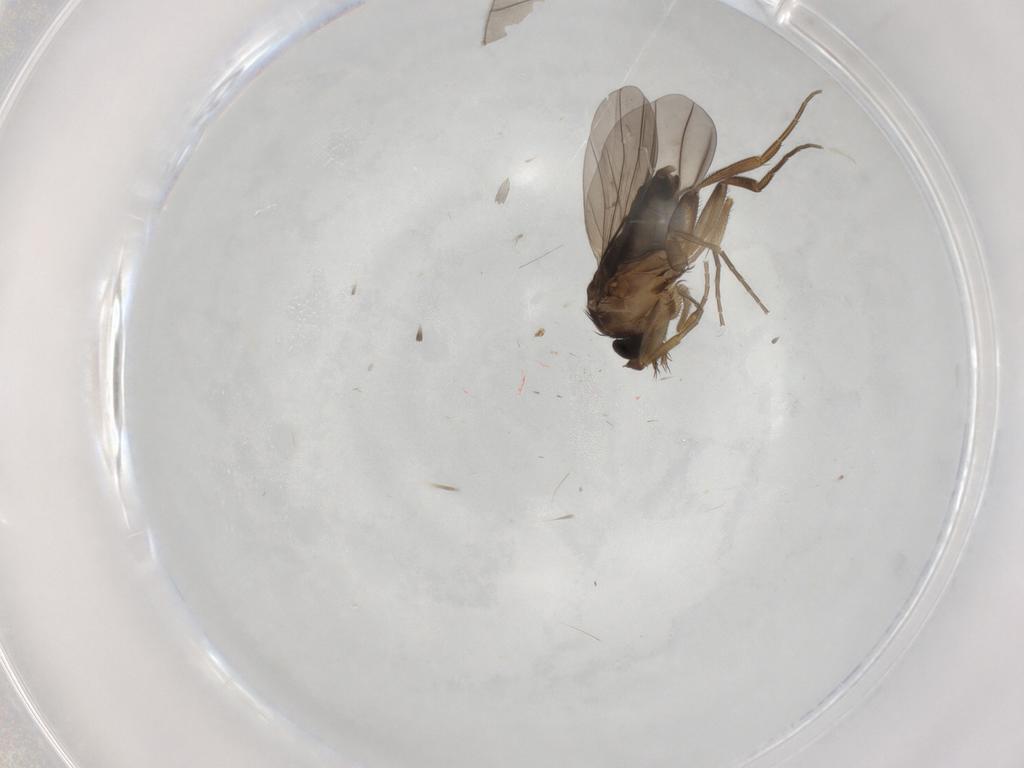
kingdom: Animalia
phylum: Arthropoda
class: Insecta
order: Diptera
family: Phoridae
